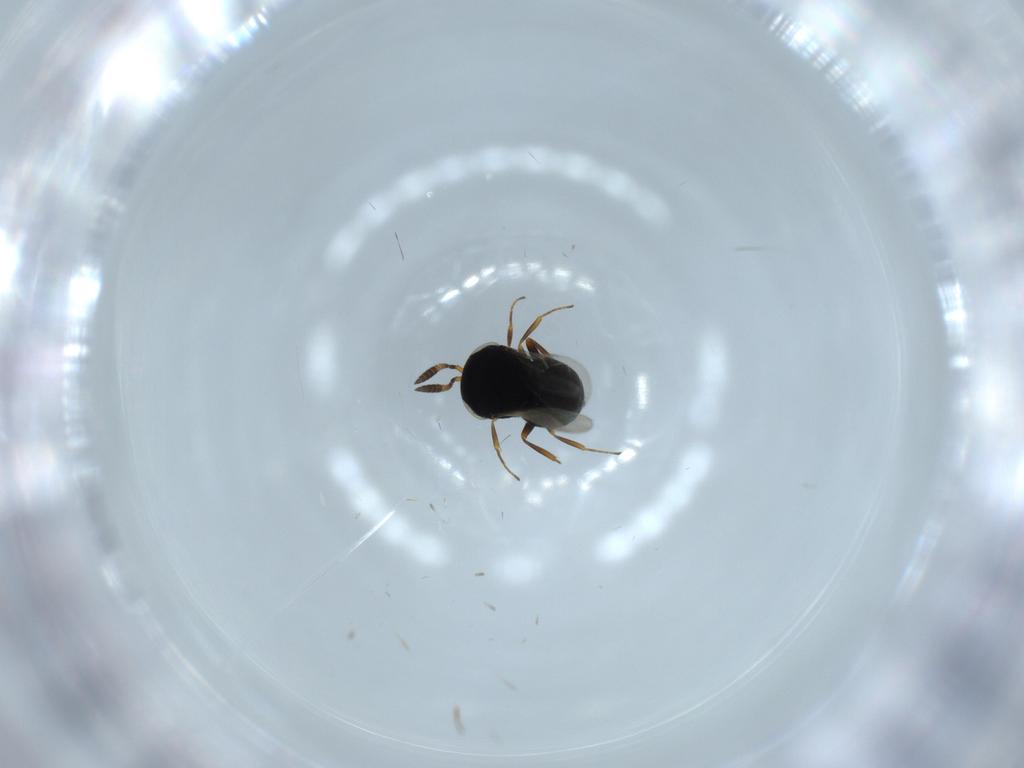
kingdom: Animalia
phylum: Arthropoda
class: Insecta
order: Hymenoptera
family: Scelionidae
